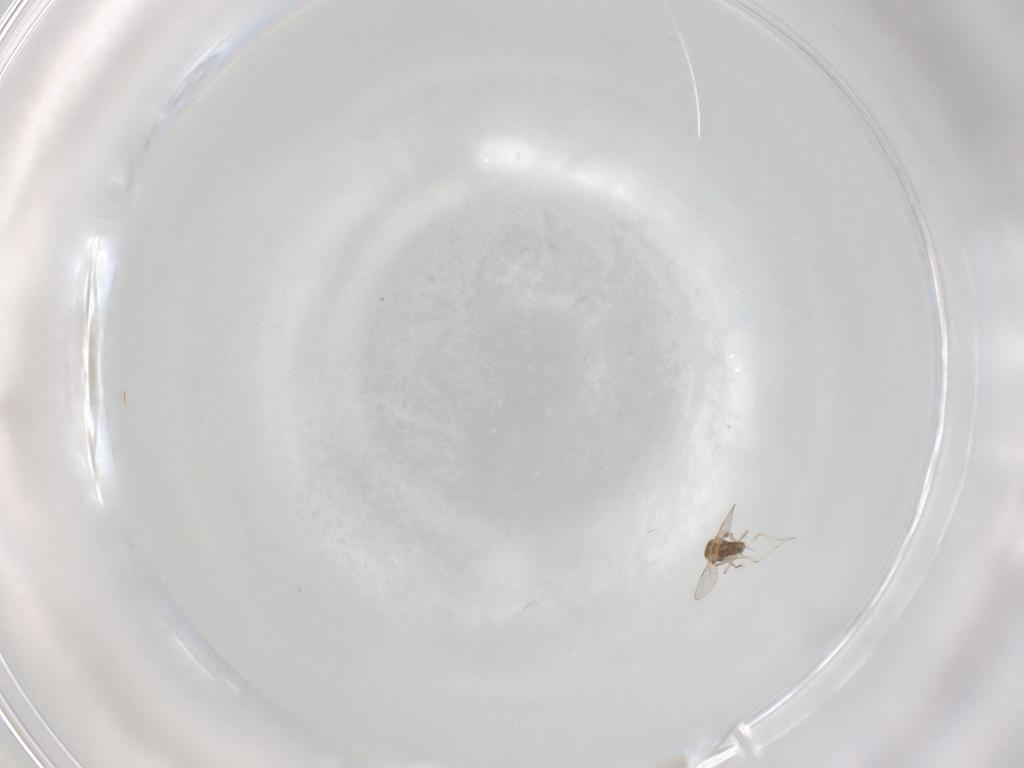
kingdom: Animalia
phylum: Arthropoda
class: Insecta
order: Diptera
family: Ceratopogonidae
